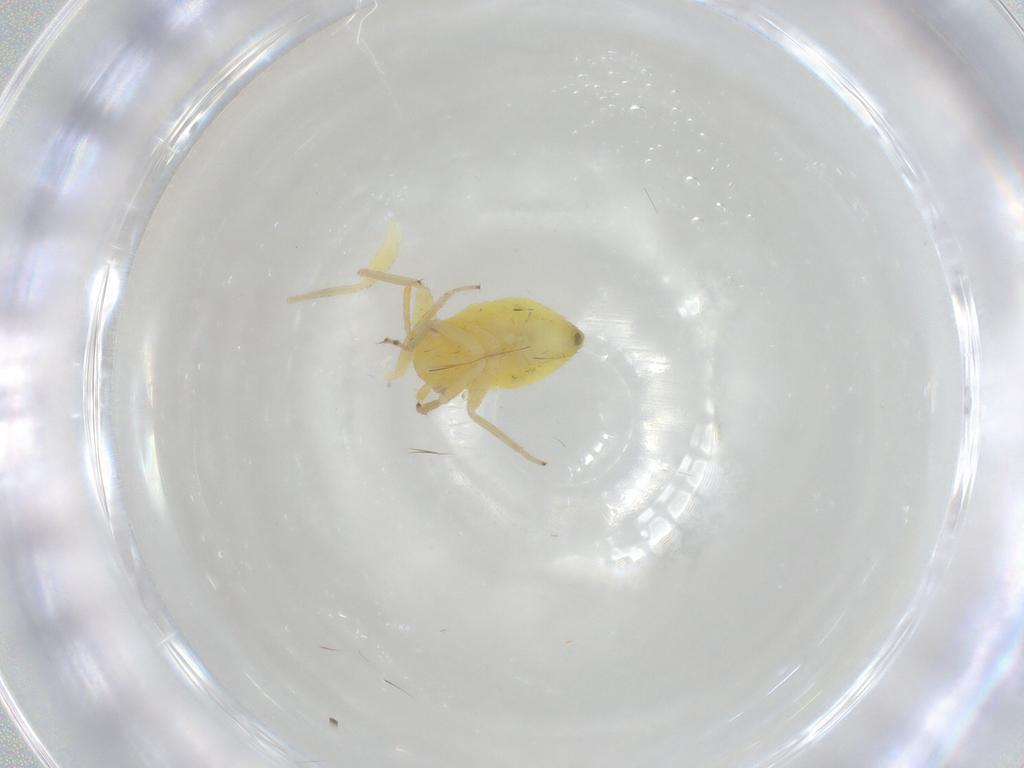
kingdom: Animalia
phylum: Arthropoda
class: Insecta
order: Hemiptera
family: Miridae
